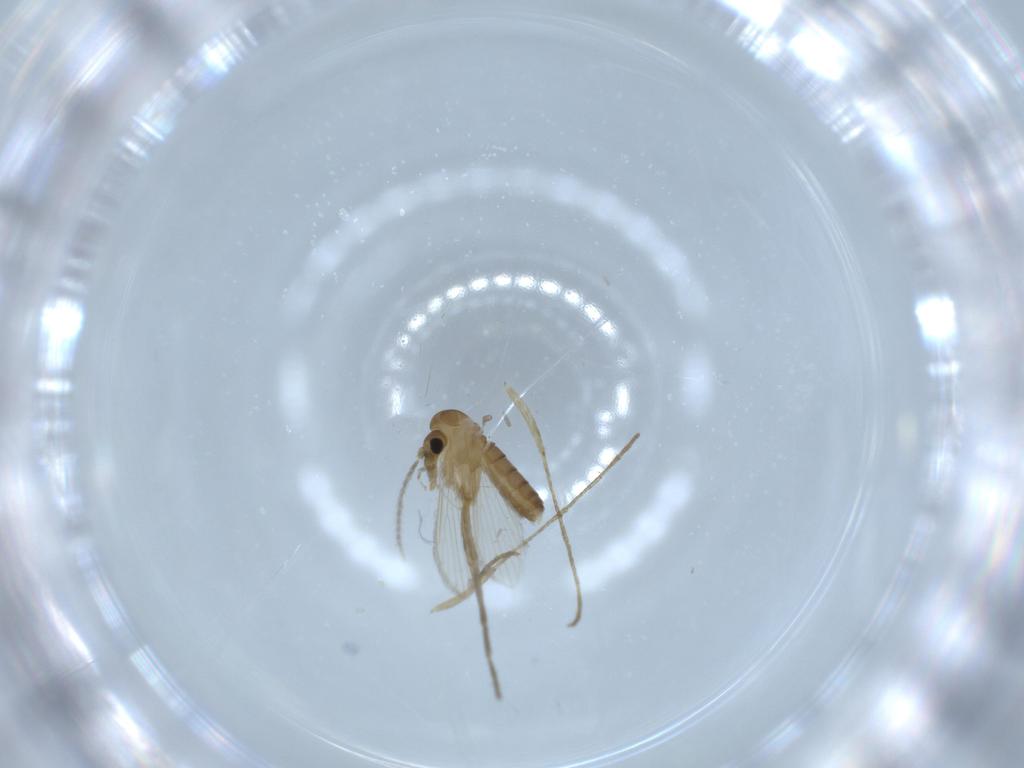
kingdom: Animalia
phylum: Arthropoda
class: Insecta
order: Diptera
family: Psychodidae
